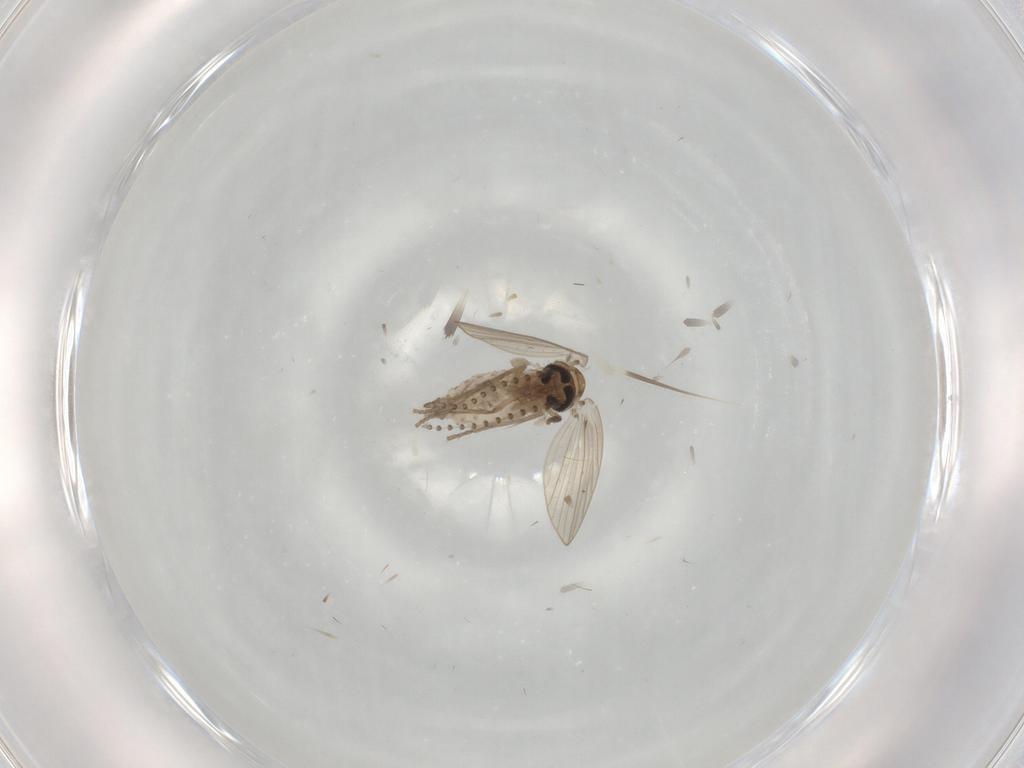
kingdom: Animalia
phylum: Arthropoda
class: Insecta
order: Diptera
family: Psychodidae
